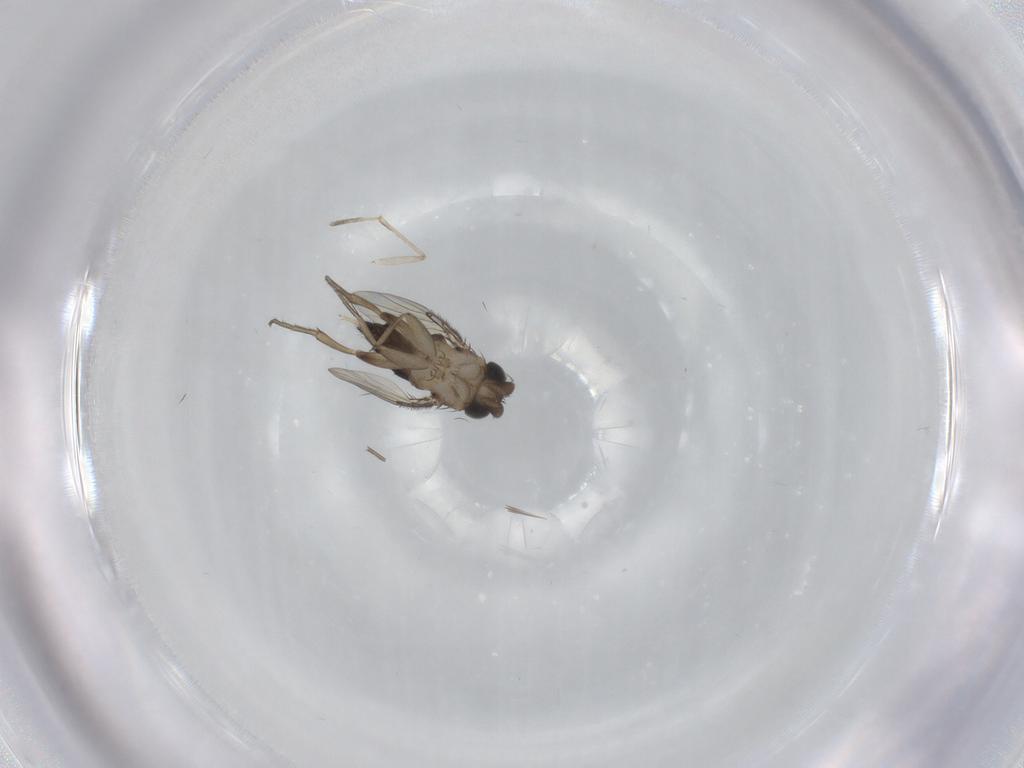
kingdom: Animalia
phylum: Arthropoda
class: Insecta
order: Diptera
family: Phoridae
